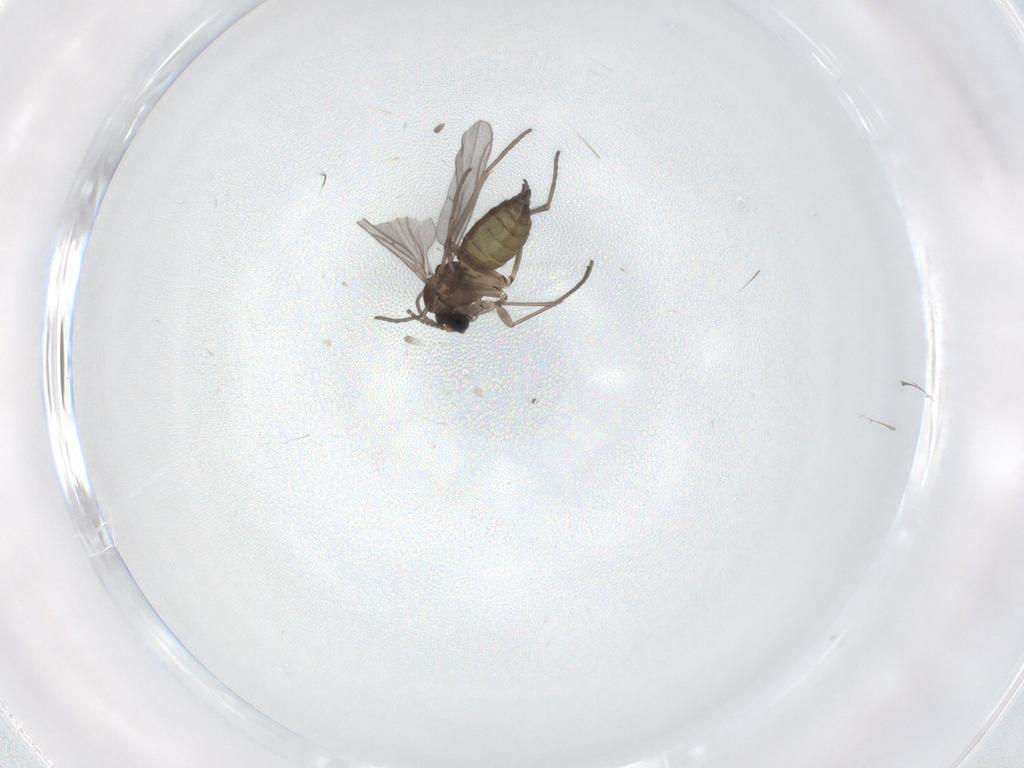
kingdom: Animalia
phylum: Arthropoda
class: Insecta
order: Diptera
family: Sciaridae
